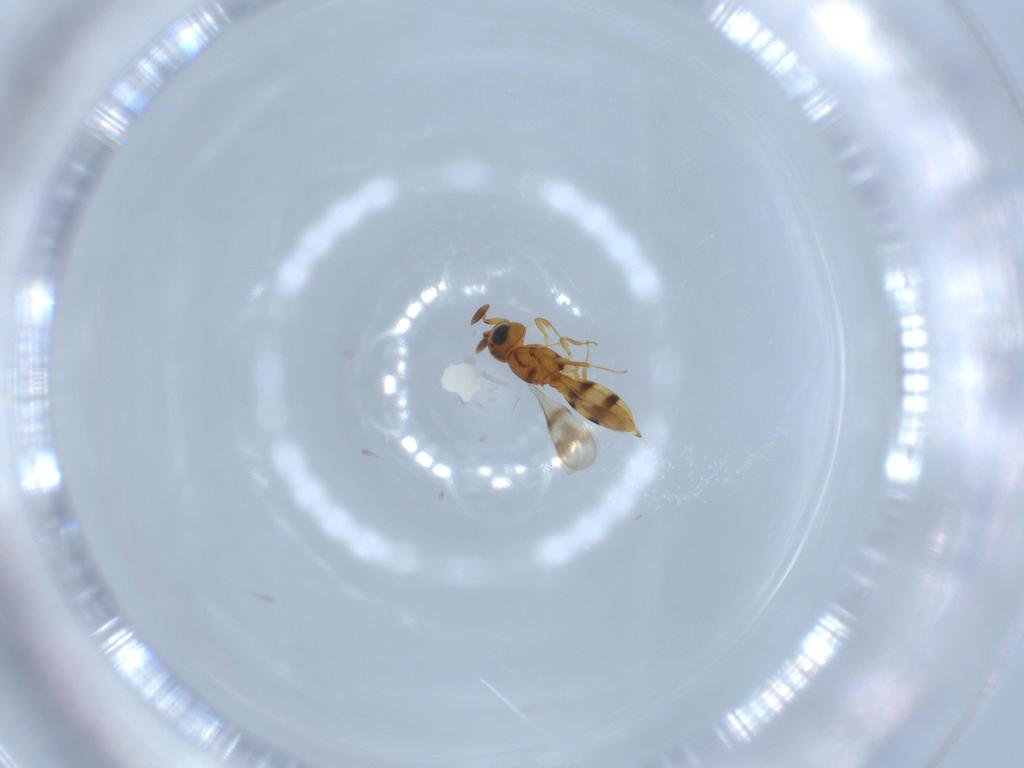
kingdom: Animalia
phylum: Arthropoda
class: Insecta
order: Hymenoptera
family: Scelionidae
